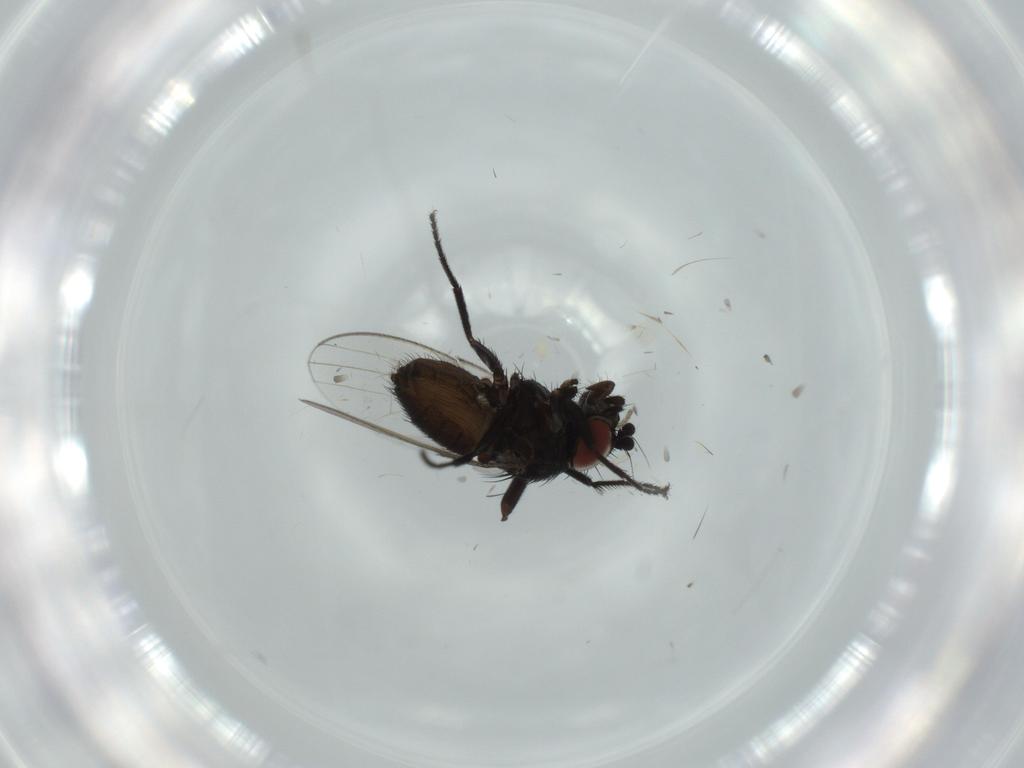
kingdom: Animalia
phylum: Arthropoda
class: Insecta
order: Diptera
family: Milichiidae
